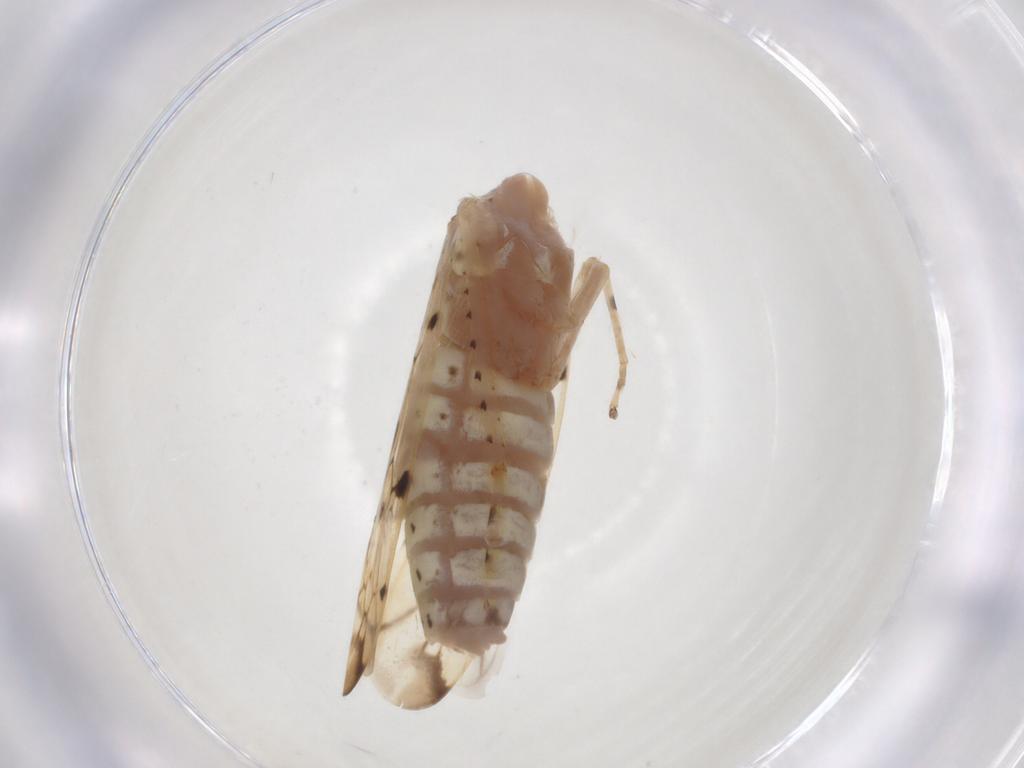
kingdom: Animalia
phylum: Arthropoda
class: Insecta
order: Hemiptera
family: Cicadellidae
